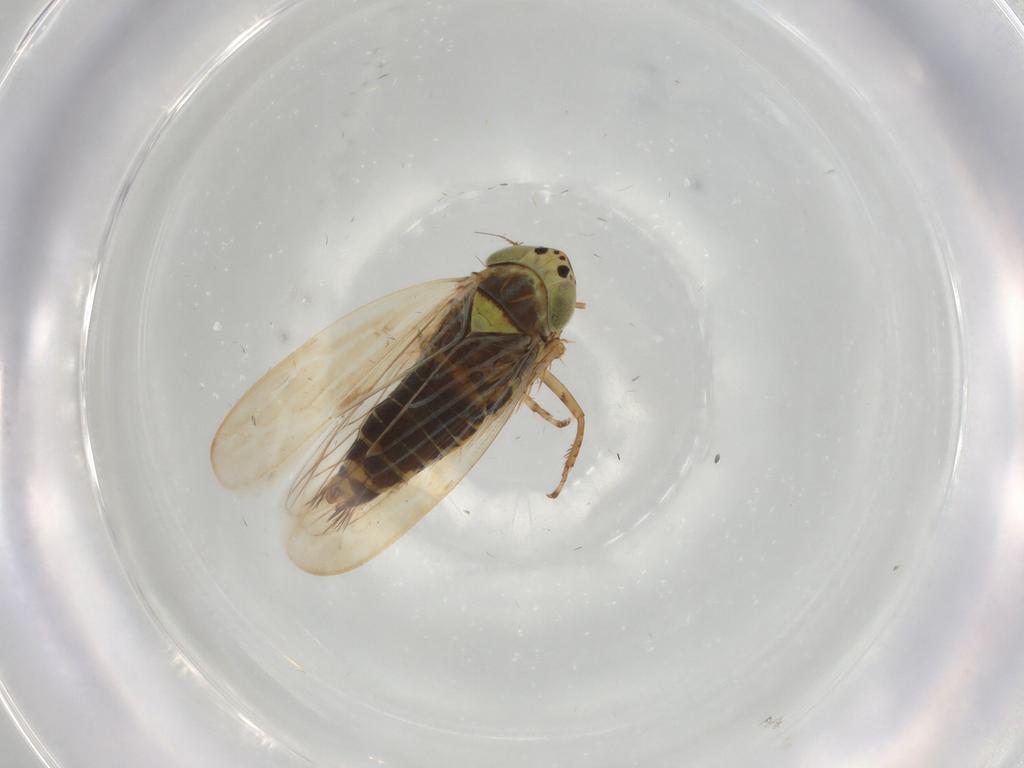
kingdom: Animalia
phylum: Arthropoda
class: Insecta
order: Hemiptera
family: Cicadellidae
